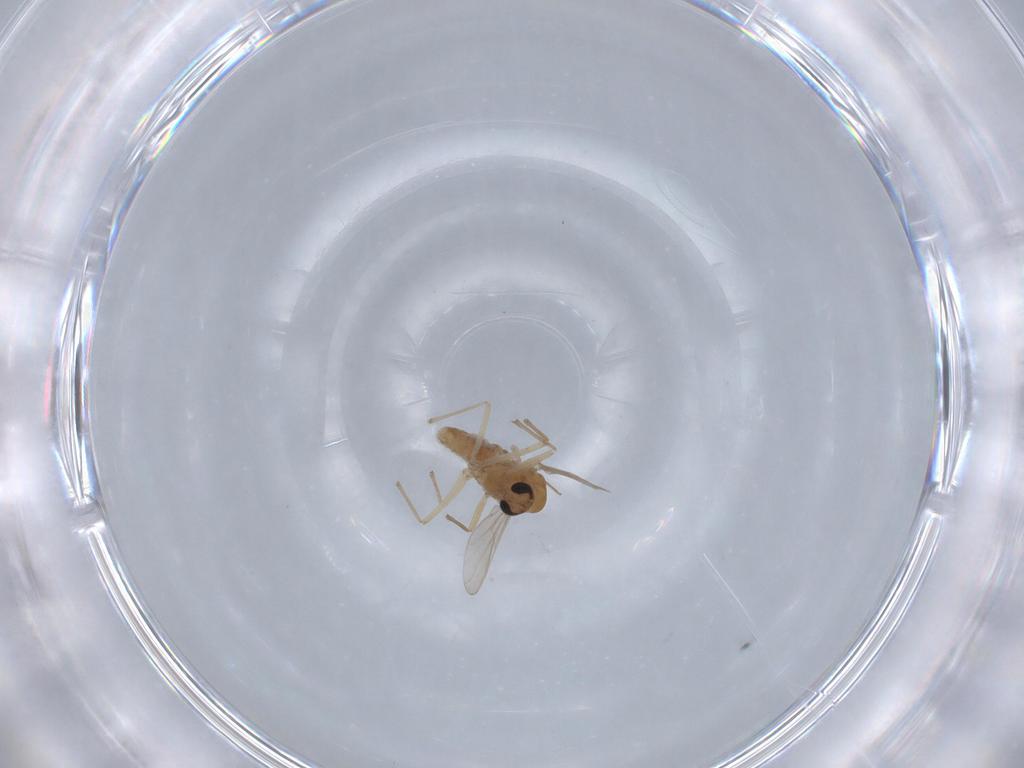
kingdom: Animalia
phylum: Arthropoda
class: Insecta
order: Diptera
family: Chironomidae
